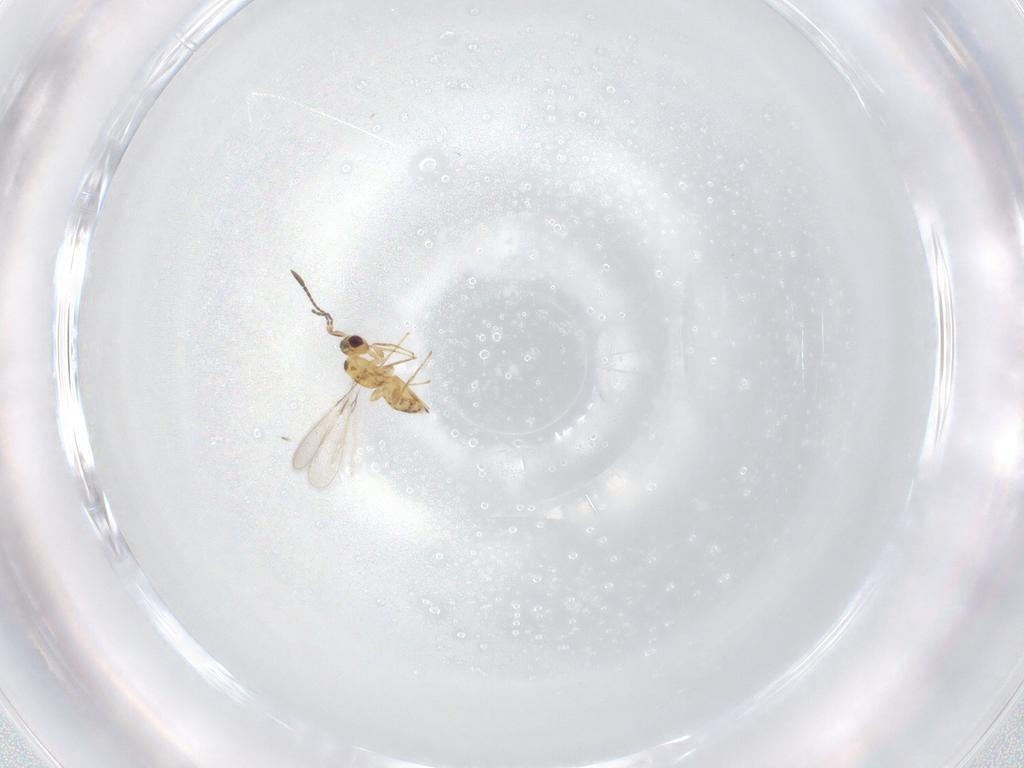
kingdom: Animalia
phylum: Arthropoda
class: Insecta
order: Hymenoptera
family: Mymaridae
